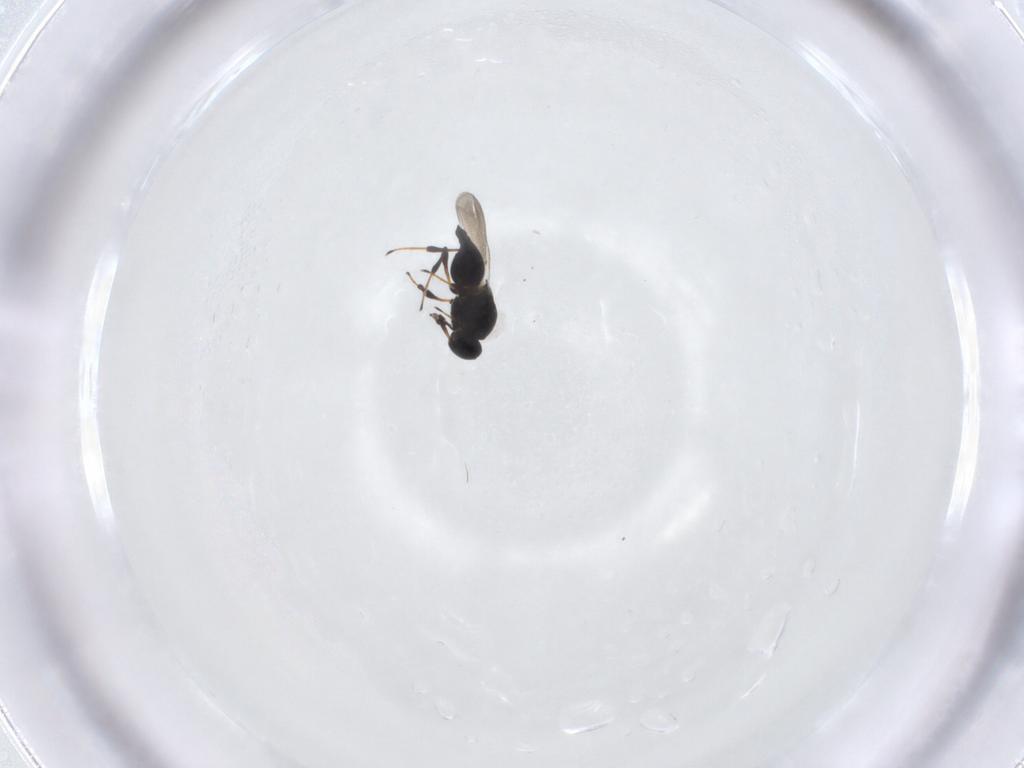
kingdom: Animalia
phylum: Arthropoda
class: Insecta
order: Hymenoptera
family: Platygastridae
